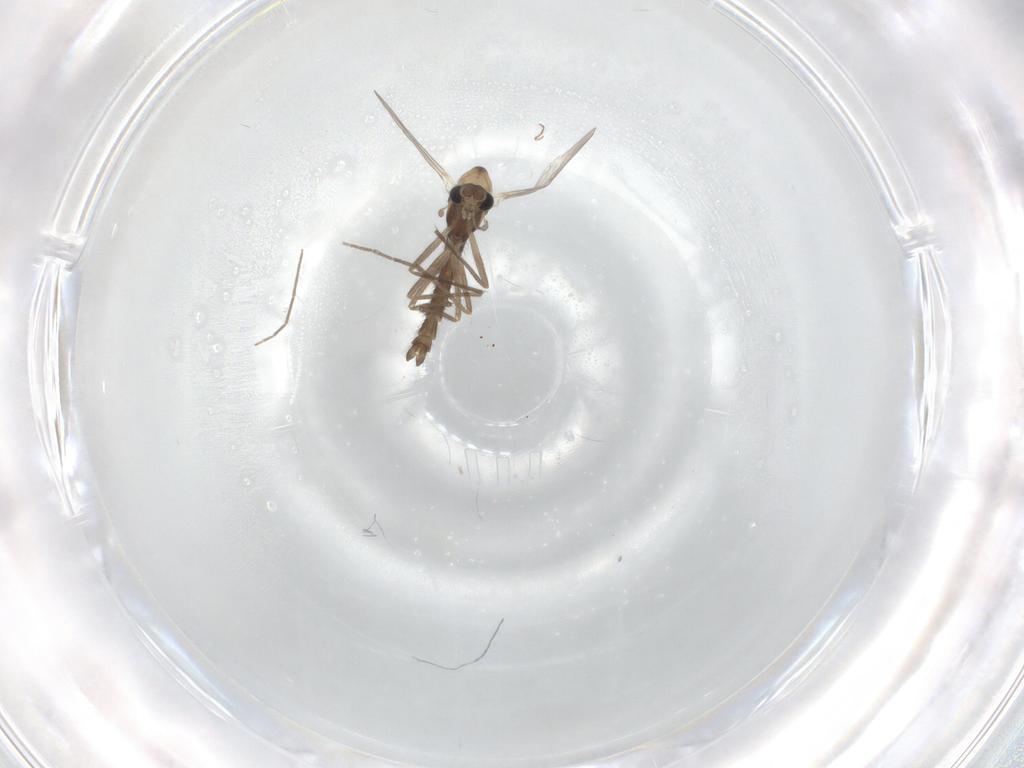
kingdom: Animalia
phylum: Arthropoda
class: Insecta
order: Diptera
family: Chironomidae
